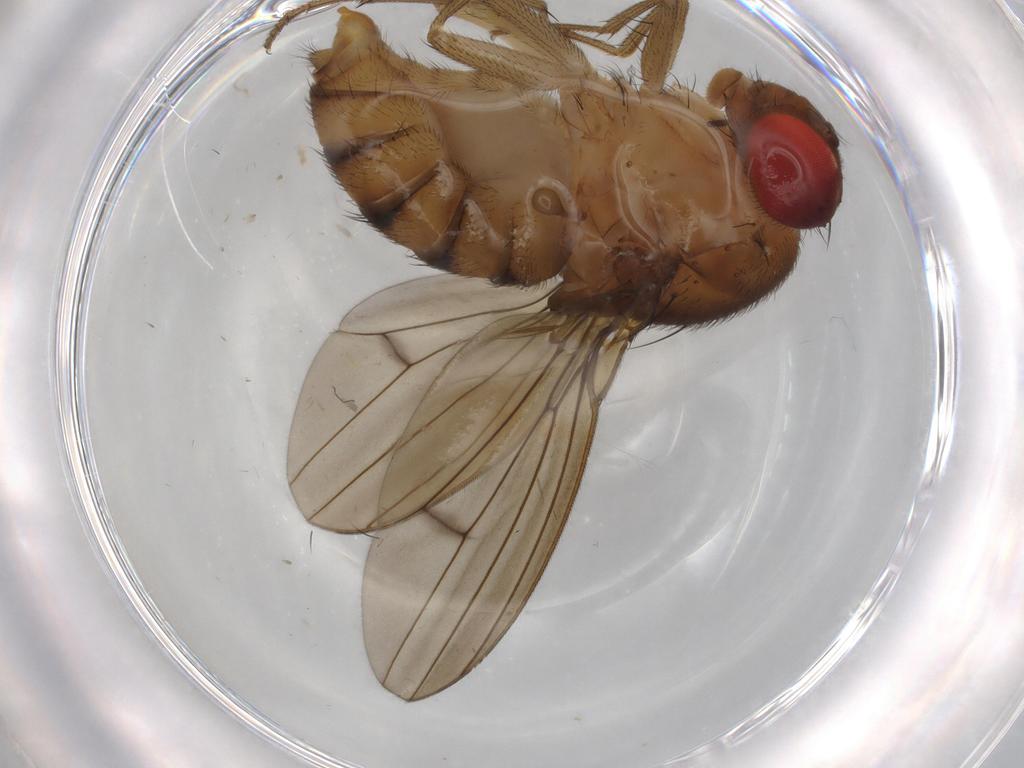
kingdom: Animalia
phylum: Arthropoda
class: Insecta
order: Diptera
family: Drosophilidae
